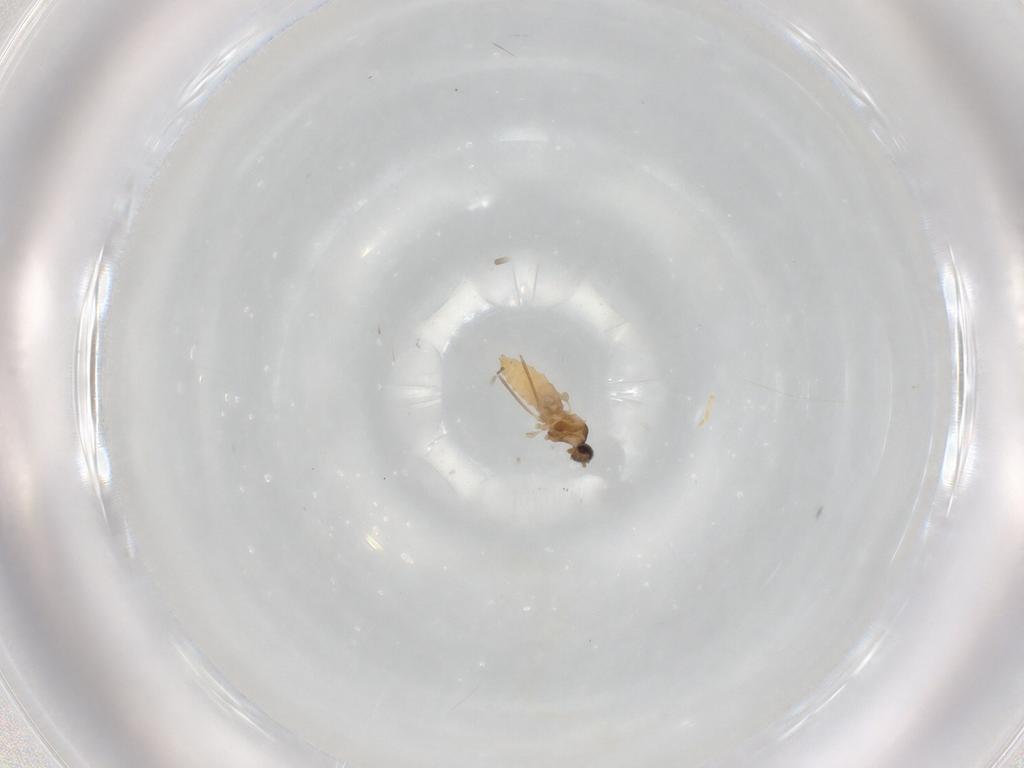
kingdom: Animalia
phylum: Arthropoda
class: Insecta
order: Diptera
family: Cecidomyiidae
